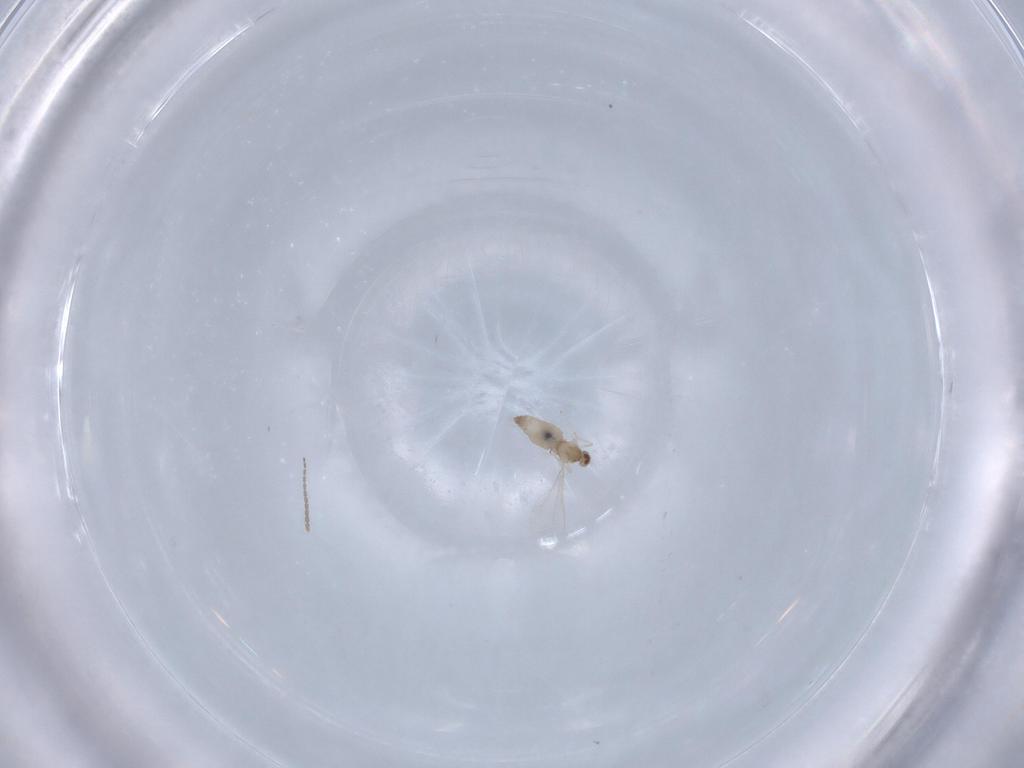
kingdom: Animalia
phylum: Arthropoda
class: Insecta
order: Diptera
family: Cecidomyiidae
